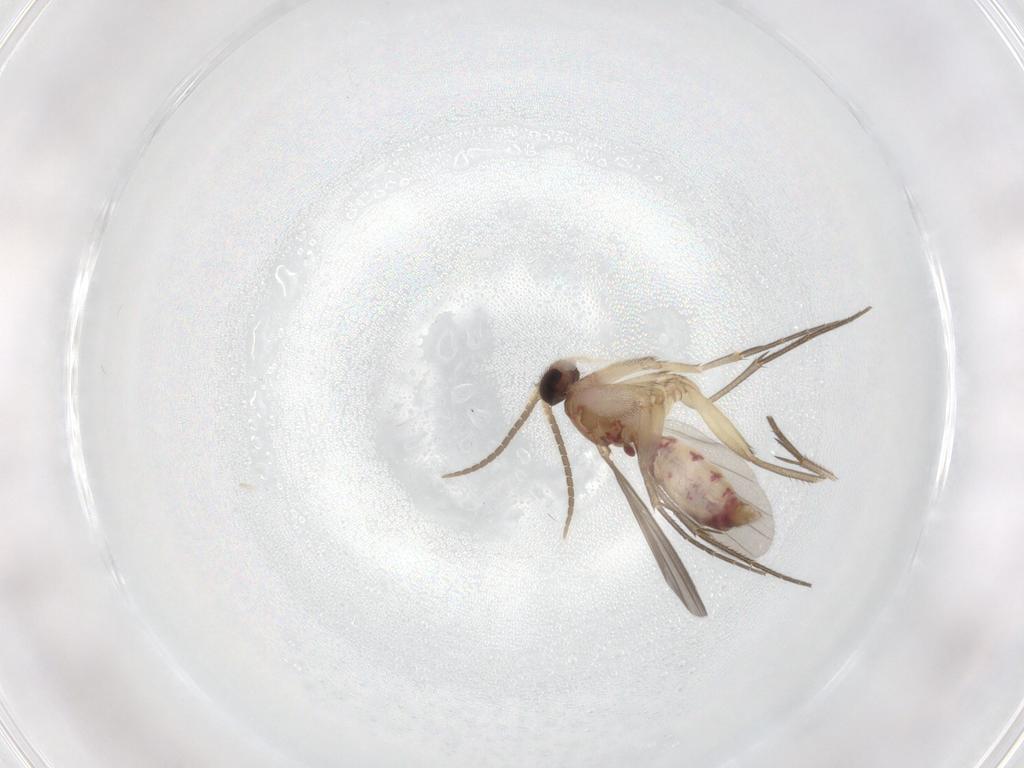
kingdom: Animalia
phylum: Arthropoda
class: Insecta
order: Diptera
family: Mycetophilidae
